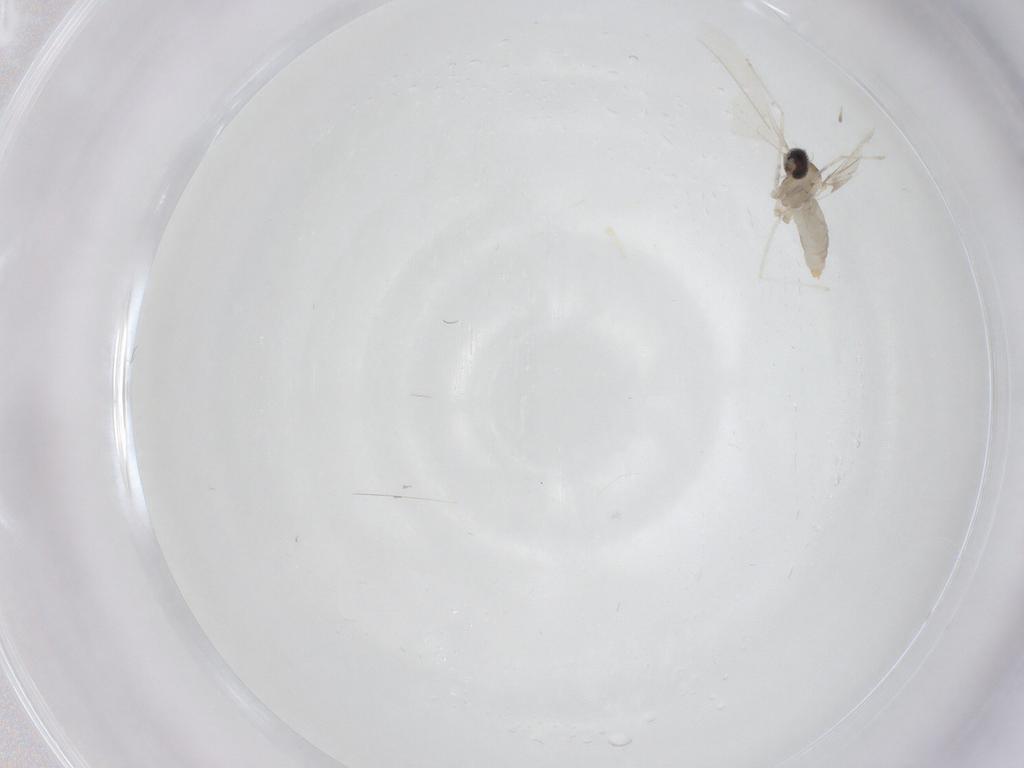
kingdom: Animalia
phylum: Arthropoda
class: Insecta
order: Diptera
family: Cecidomyiidae
